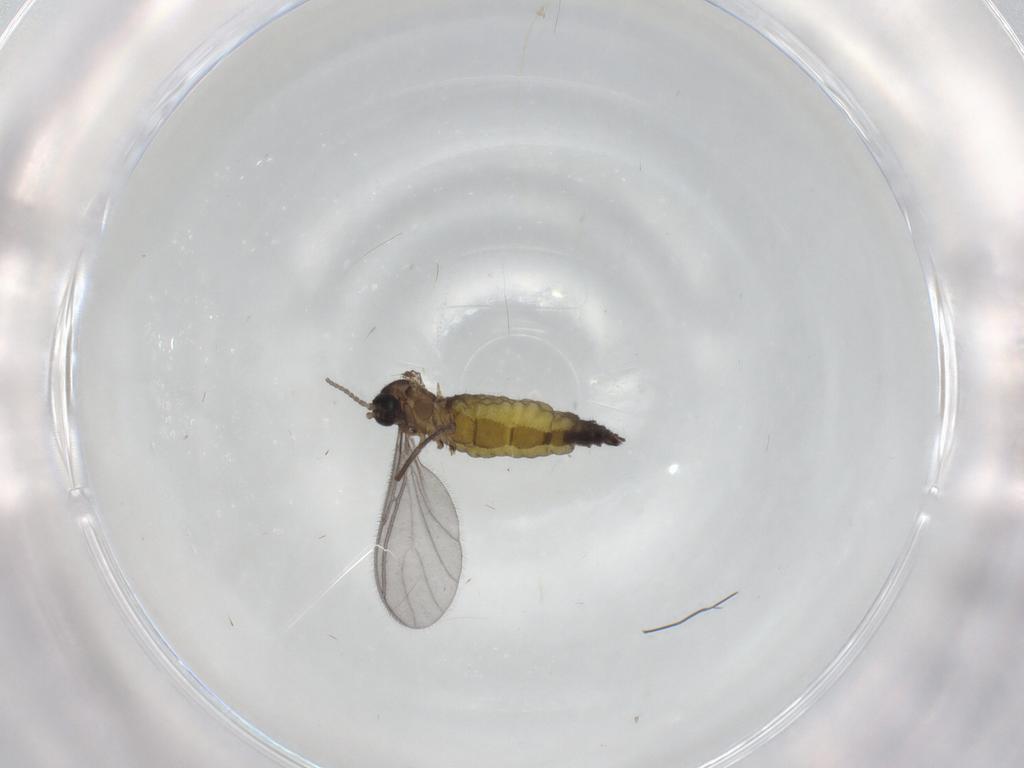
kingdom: Animalia
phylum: Arthropoda
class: Insecta
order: Diptera
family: Sciaridae
